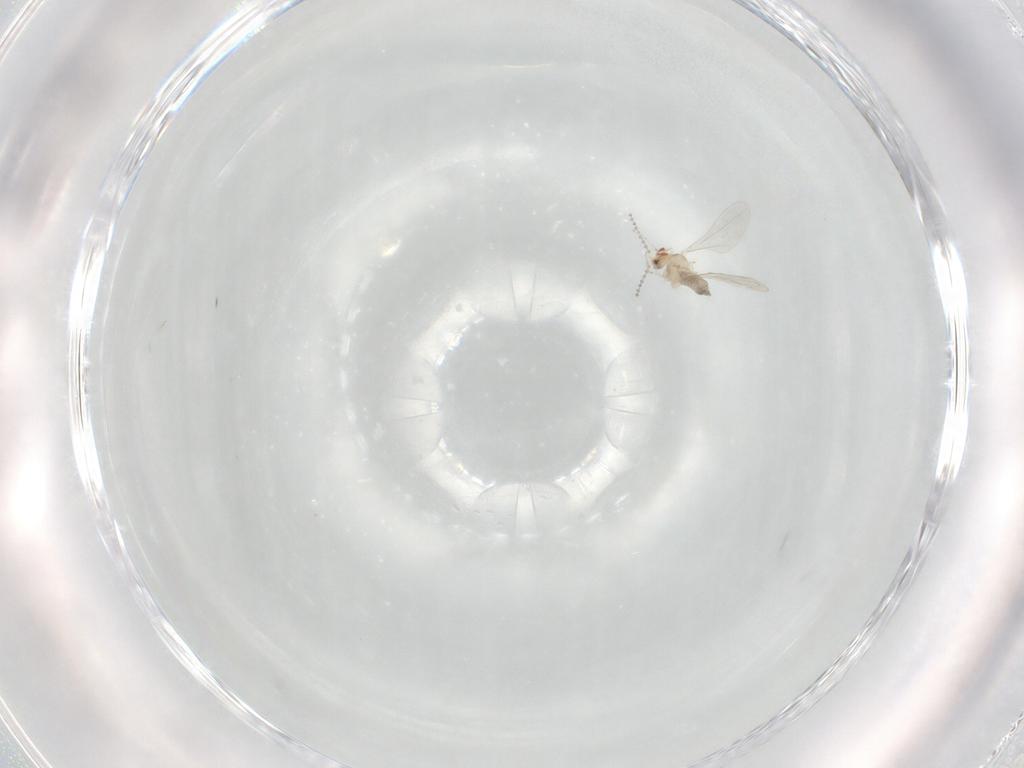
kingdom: Animalia
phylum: Arthropoda
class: Insecta
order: Diptera
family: Cecidomyiidae
